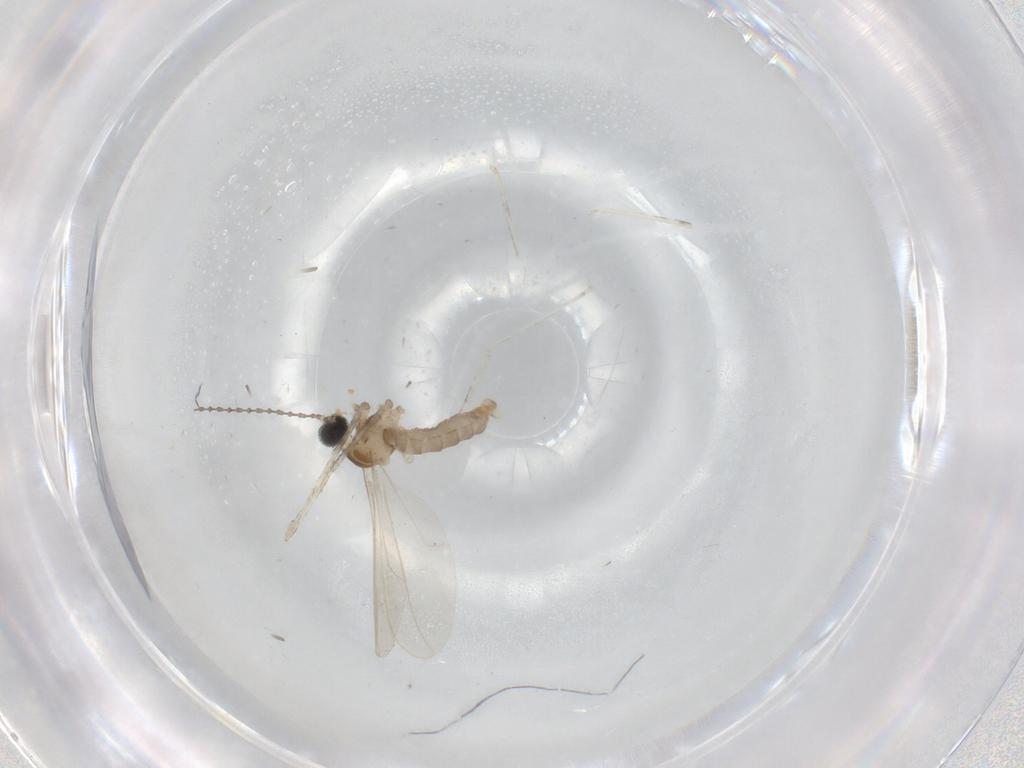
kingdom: Animalia
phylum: Arthropoda
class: Insecta
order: Diptera
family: Cecidomyiidae
